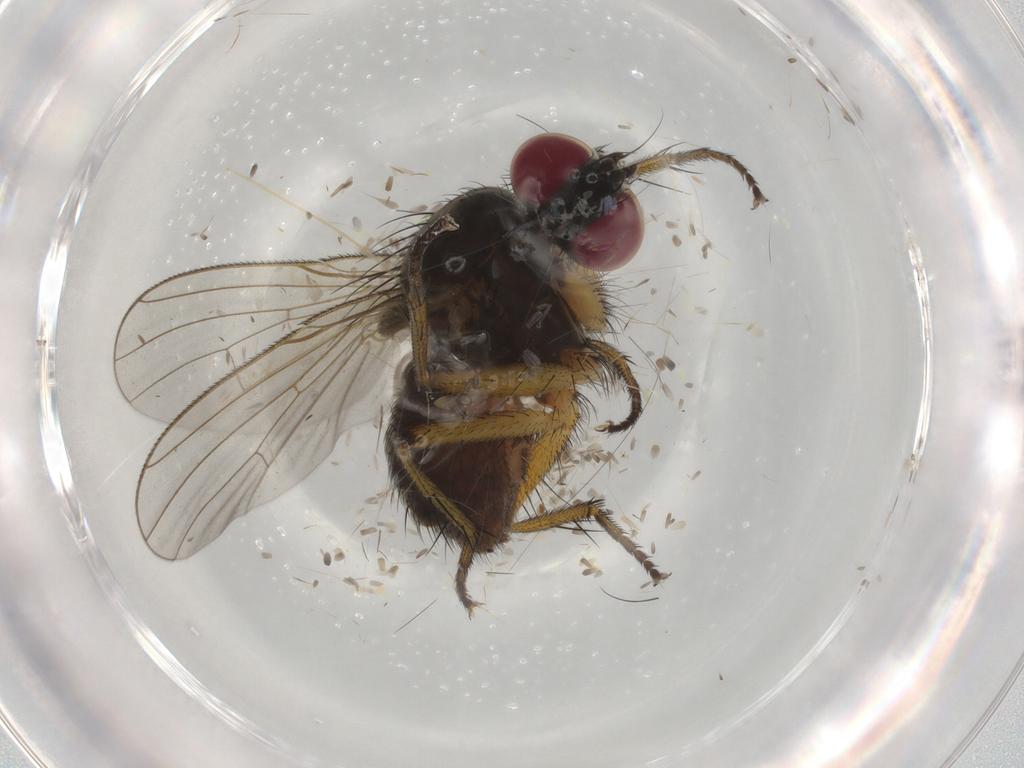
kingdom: Animalia
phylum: Arthropoda
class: Insecta
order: Diptera
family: Muscidae
